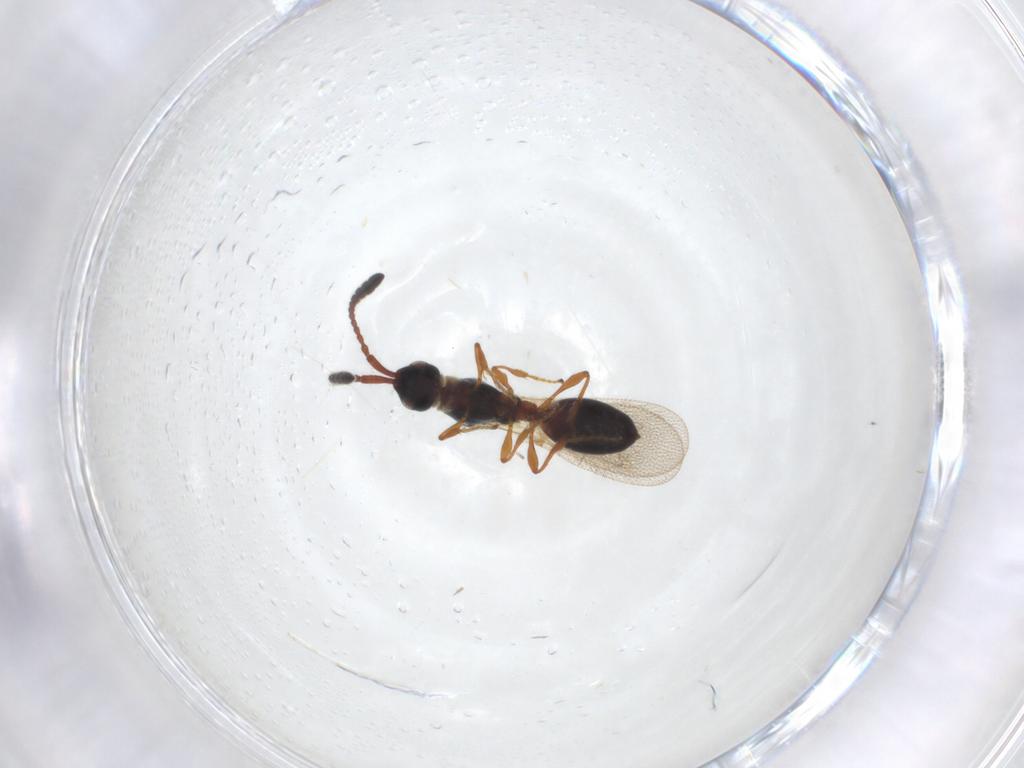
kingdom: Animalia
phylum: Arthropoda
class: Insecta
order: Hymenoptera
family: Diapriidae
